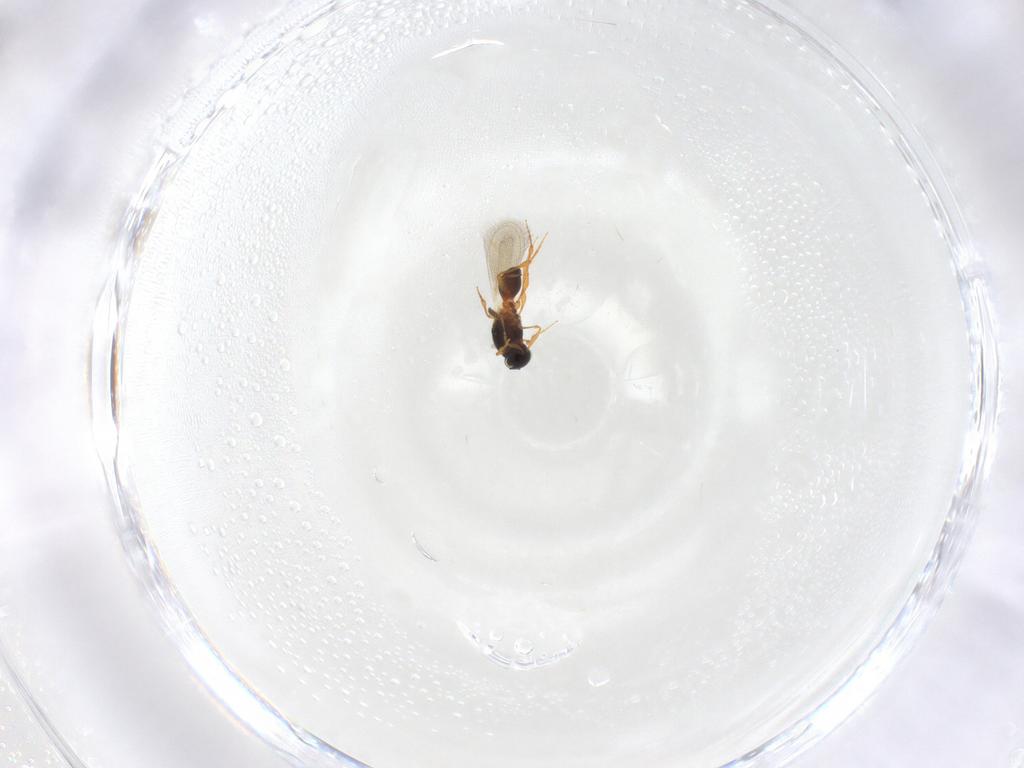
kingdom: Animalia
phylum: Arthropoda
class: Insecta
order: Hymenoptera
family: Platygastridae
